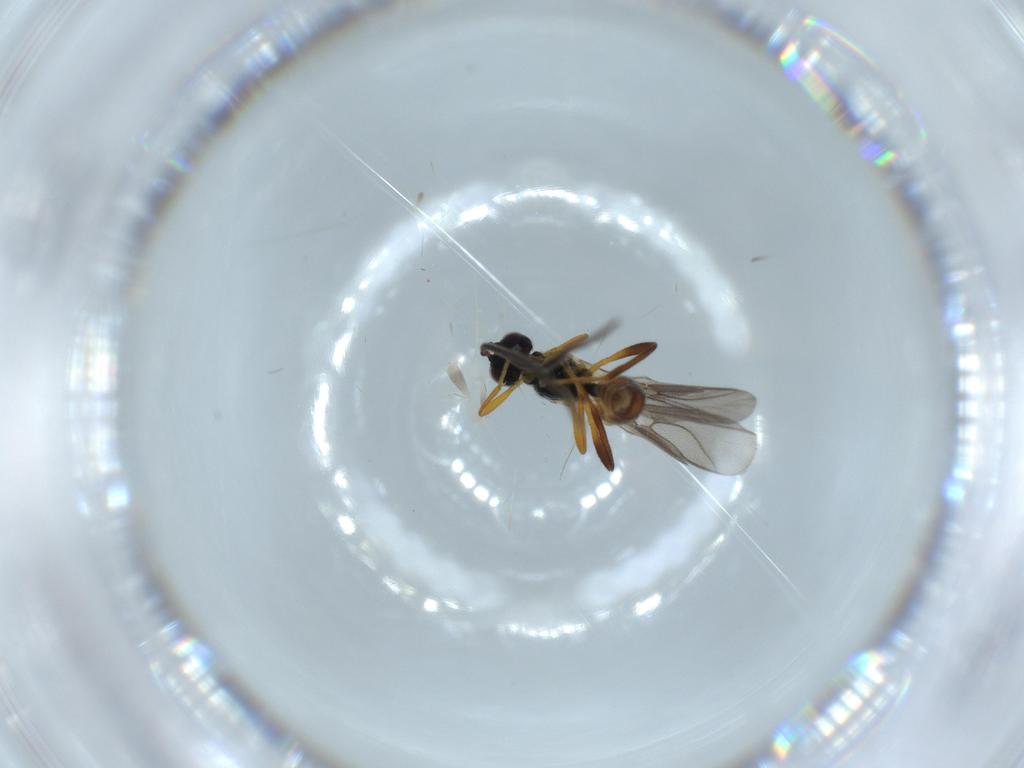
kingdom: Animalia
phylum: Arthropoda
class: Insecta
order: Hymenoptera
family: Braconidae
